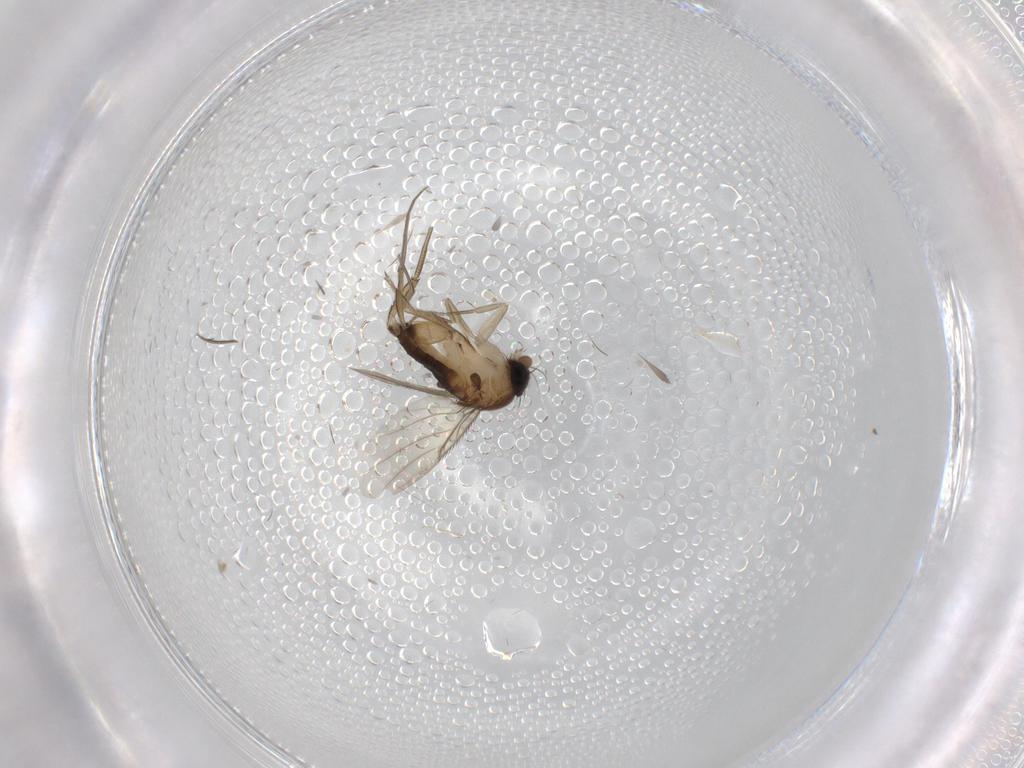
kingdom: Animalia
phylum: Arthropoda
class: Insecta
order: Diptera
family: Phoridae
